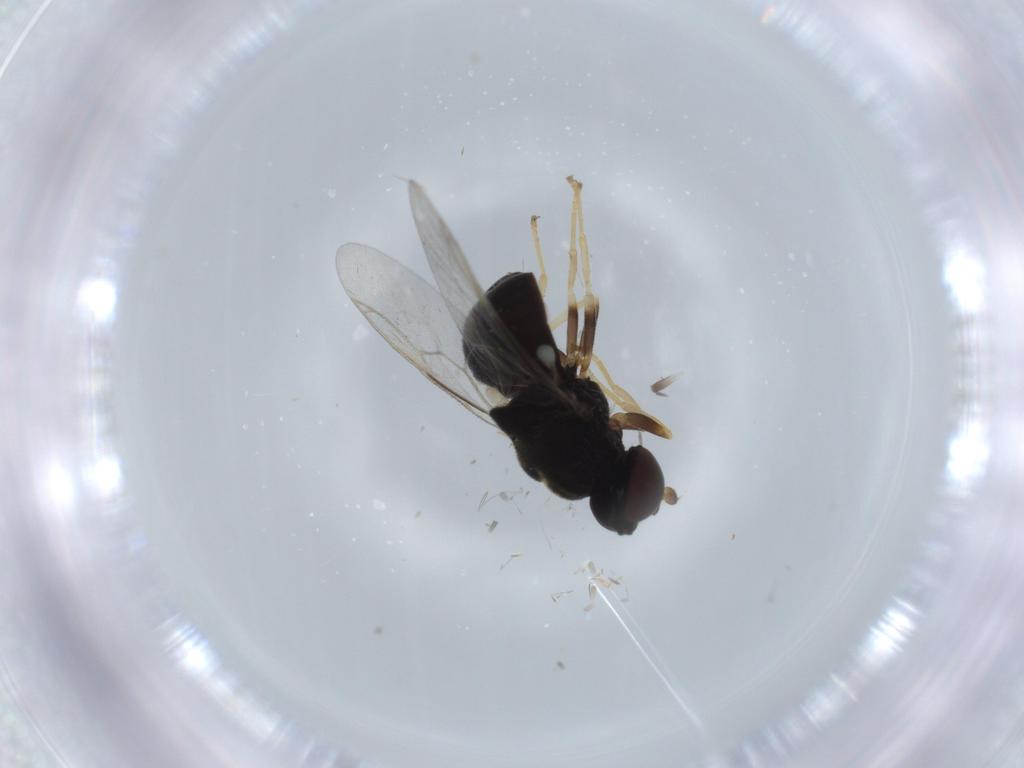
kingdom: Animalia
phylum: Arthropoda
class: Insecta
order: Diptera
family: Stratiomyidae
